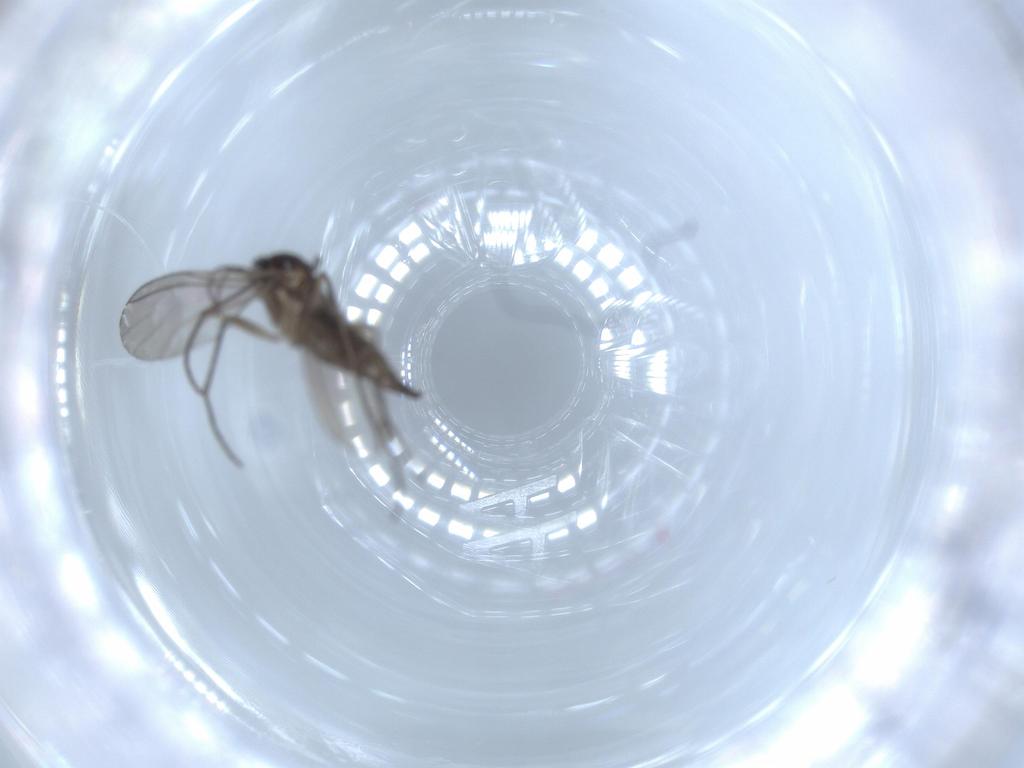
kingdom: Animalia
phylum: Arthropoda
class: Insecta
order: Diptera
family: Sciaridae
